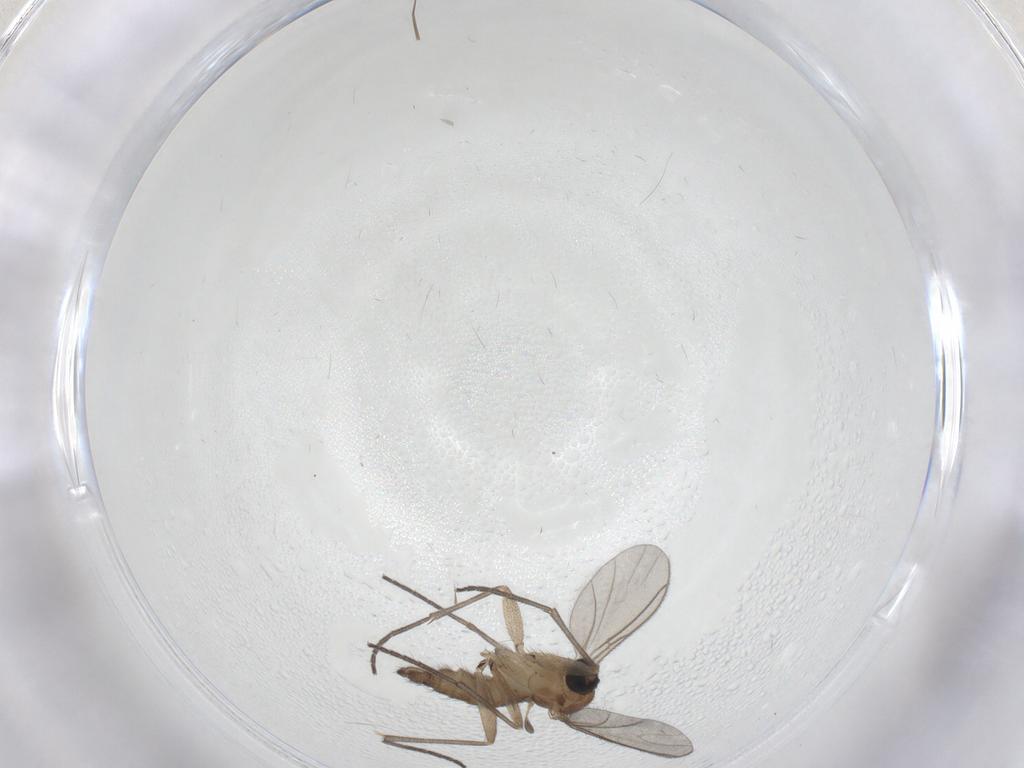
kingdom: Animalia
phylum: Arthropoda
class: Insecta
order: Diptera
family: Sciaridae
